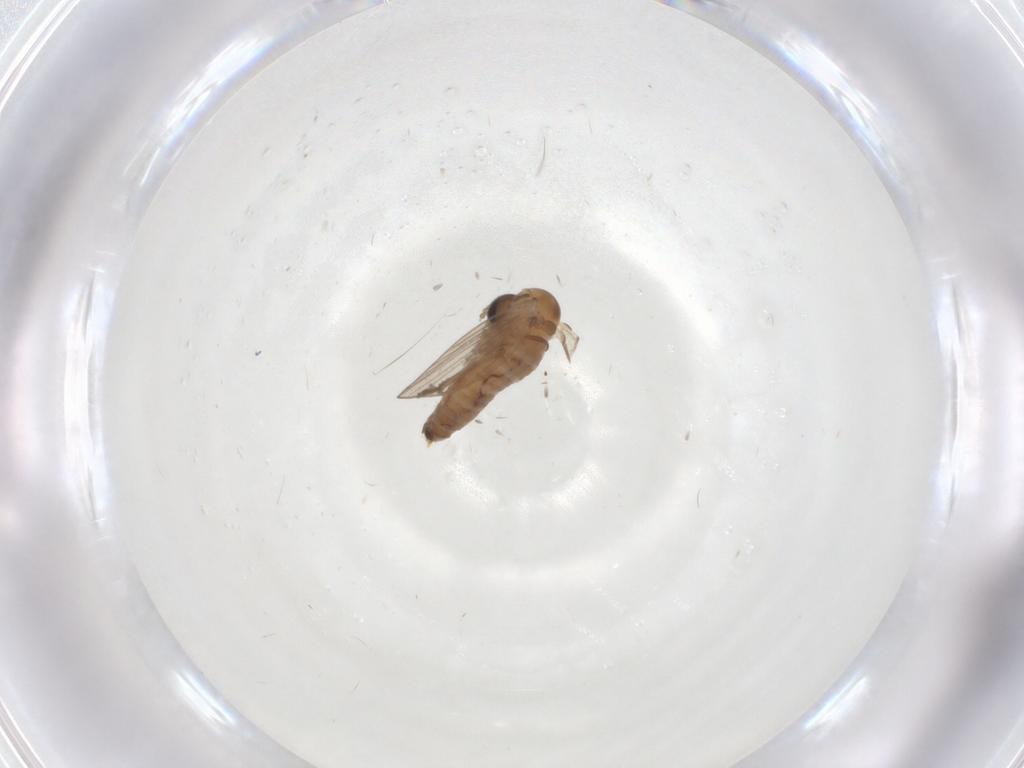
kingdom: Animalia
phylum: Arthropoda
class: Insecta
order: Diptera
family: Psychodidae
